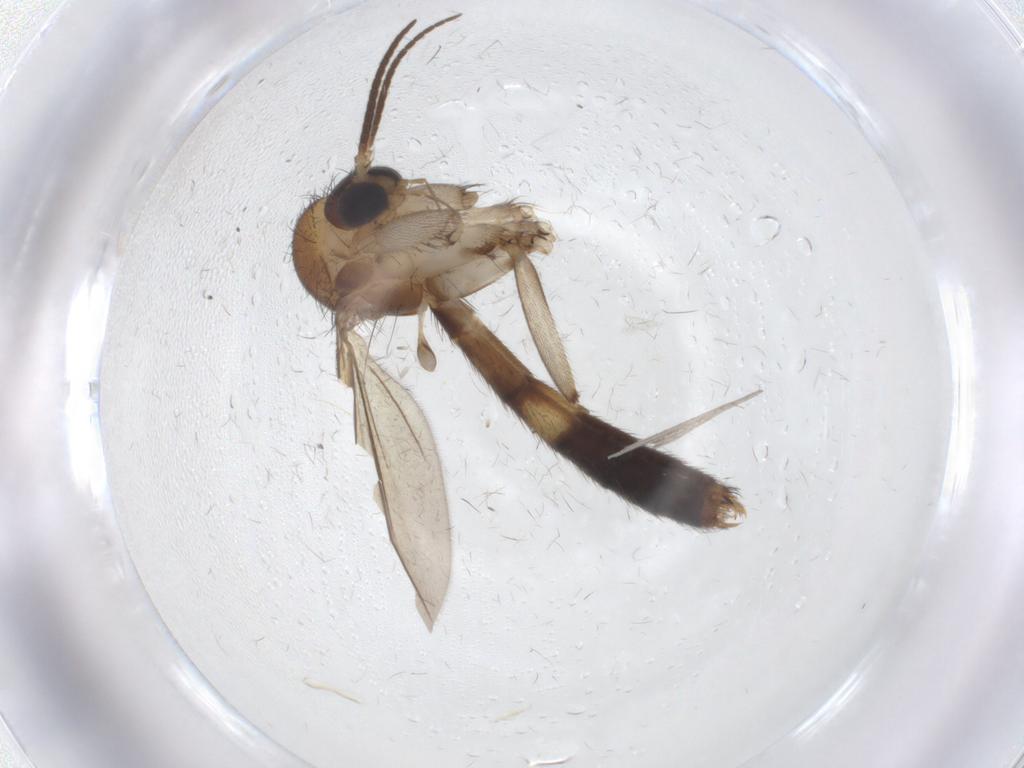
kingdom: Animalia
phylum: Arthropoda
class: Insecta
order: Diptera
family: Mycetophilidae
